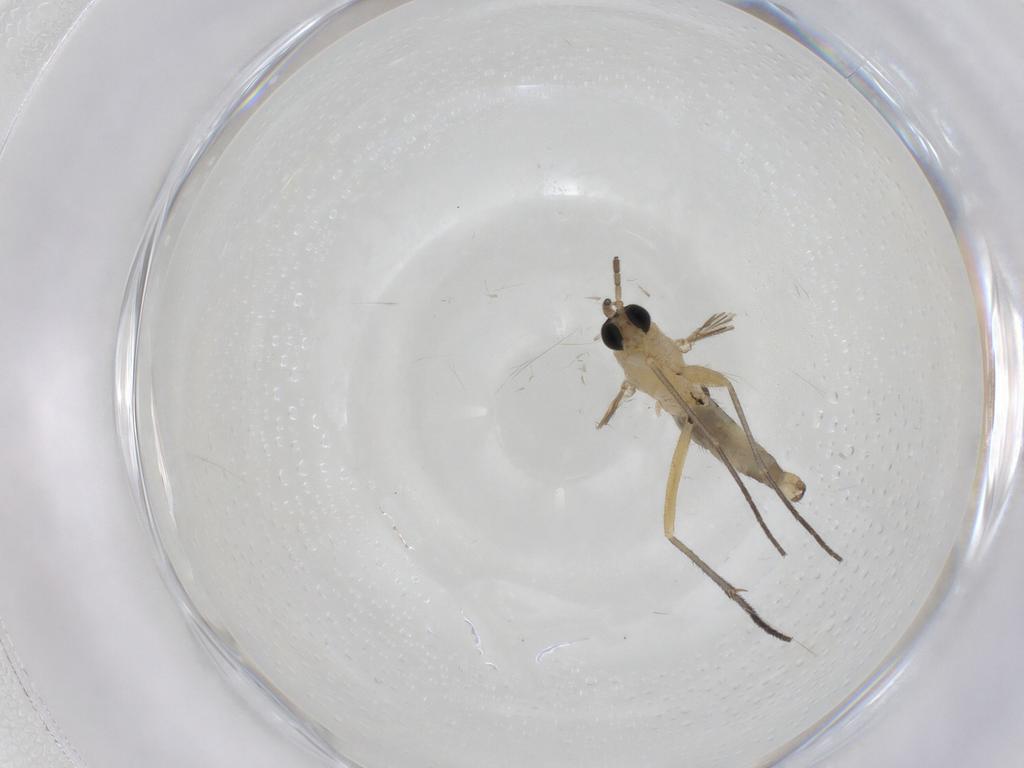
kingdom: Animalia
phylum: Arthropoda
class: Insecta
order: Diptera
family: Sciaridae
